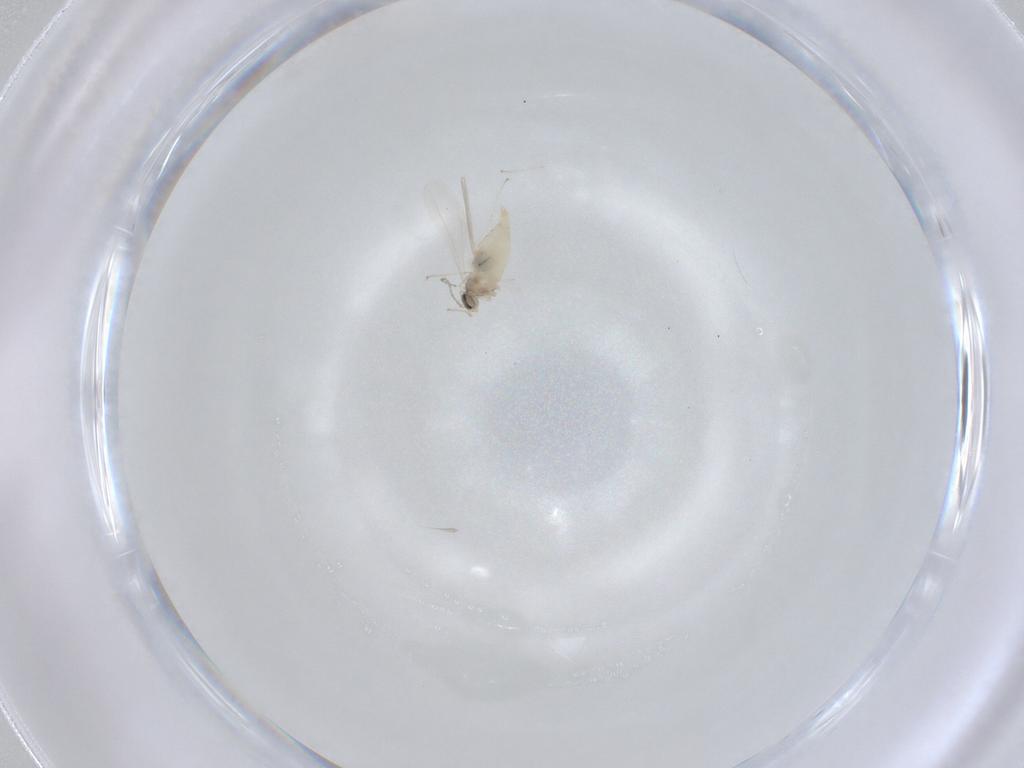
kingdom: Animalia
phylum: Arthropoda
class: Insecta
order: Diptera
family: Cecidomyiidae
